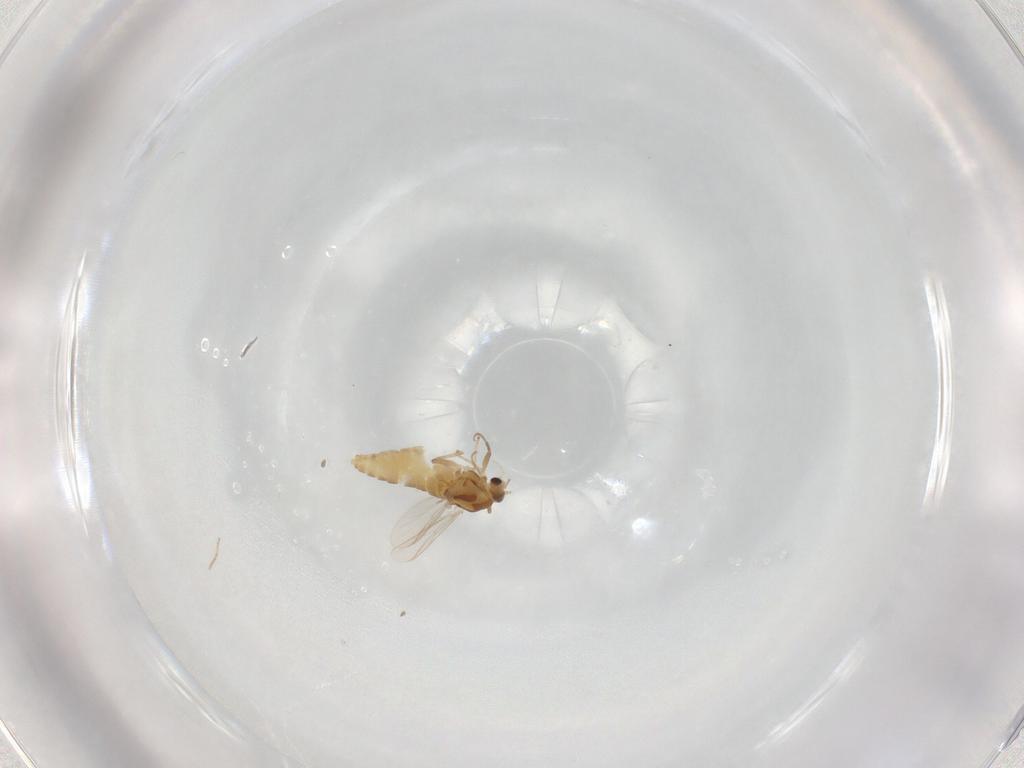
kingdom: Animalia
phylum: Arthropoda
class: Insecta
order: Diptera
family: Chironomidae
